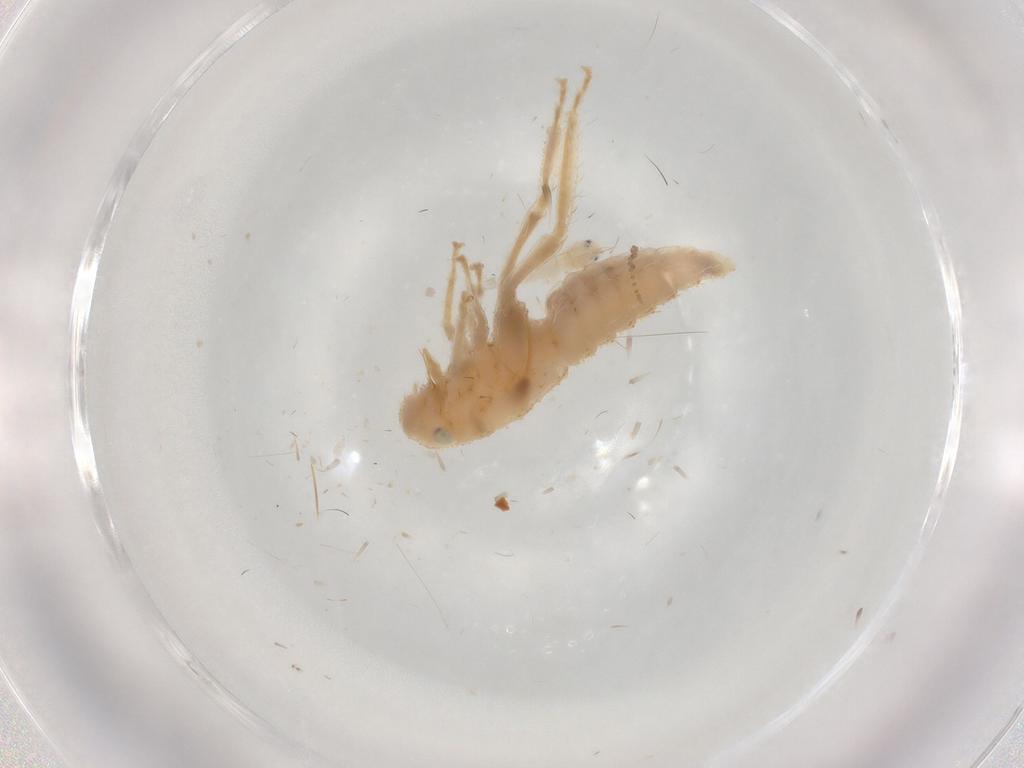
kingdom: Animalia
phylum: Arthropoda
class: Insecta
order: Hemiptera
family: Cicadellidae
